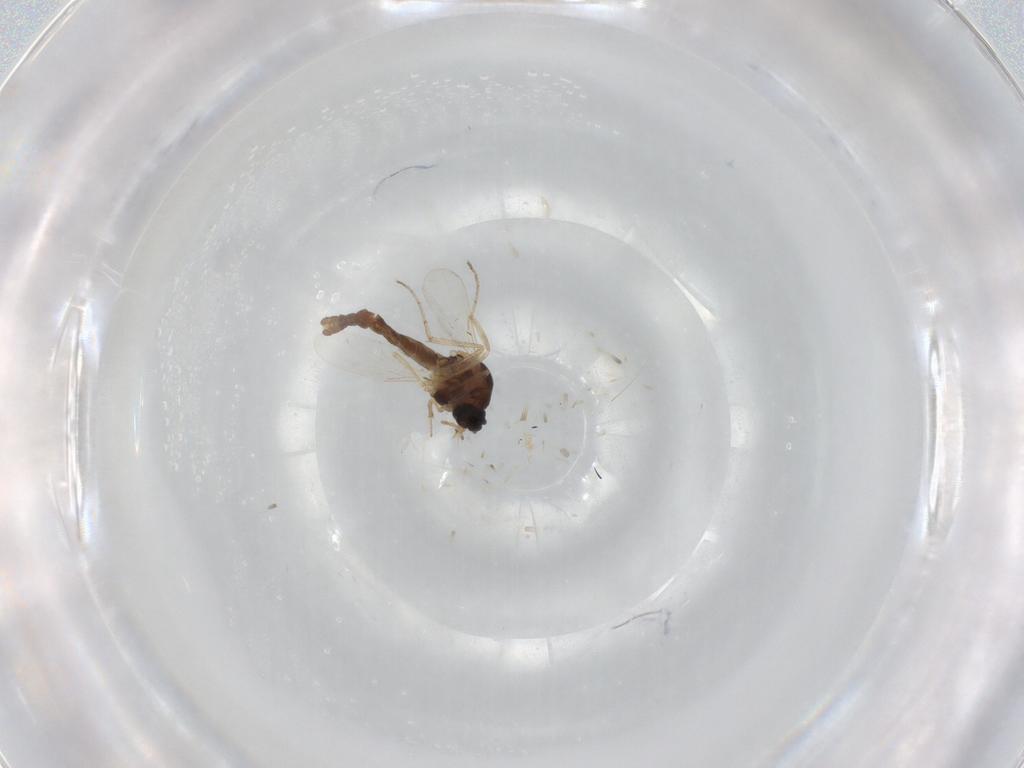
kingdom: Animalia
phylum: Arthropoda
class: Insecta
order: Diptera
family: Ceratopogonidae
